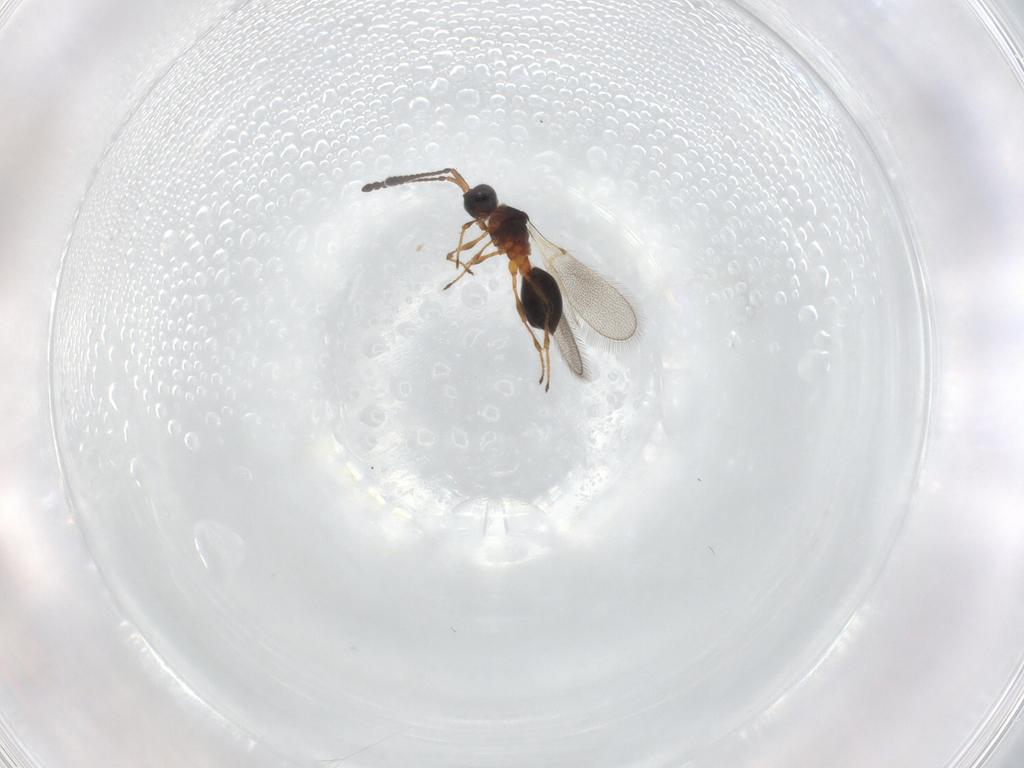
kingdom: Animalia
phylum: Arthropoda
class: Insecta
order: Hymenoptera
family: Diapriidae
